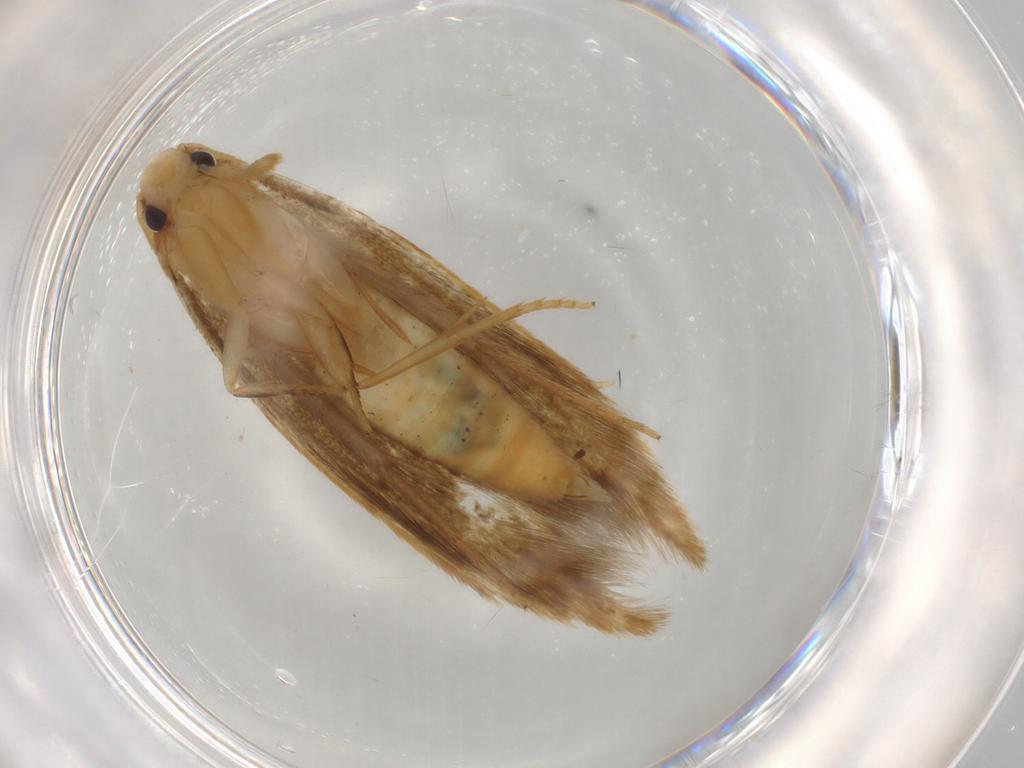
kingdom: Animalia
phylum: Arthropoda
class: Insecta
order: Lepidoptera
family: Tineidae
